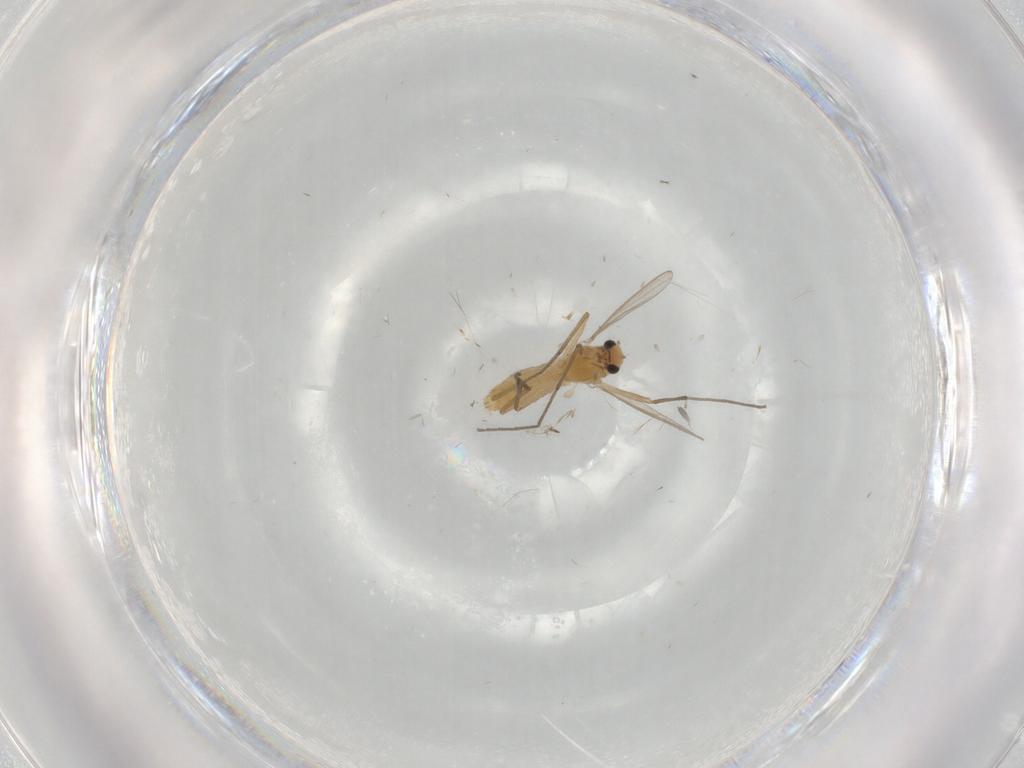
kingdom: Animalia
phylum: Arthropoda
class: Insecta
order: Diptera
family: Chironomidae
